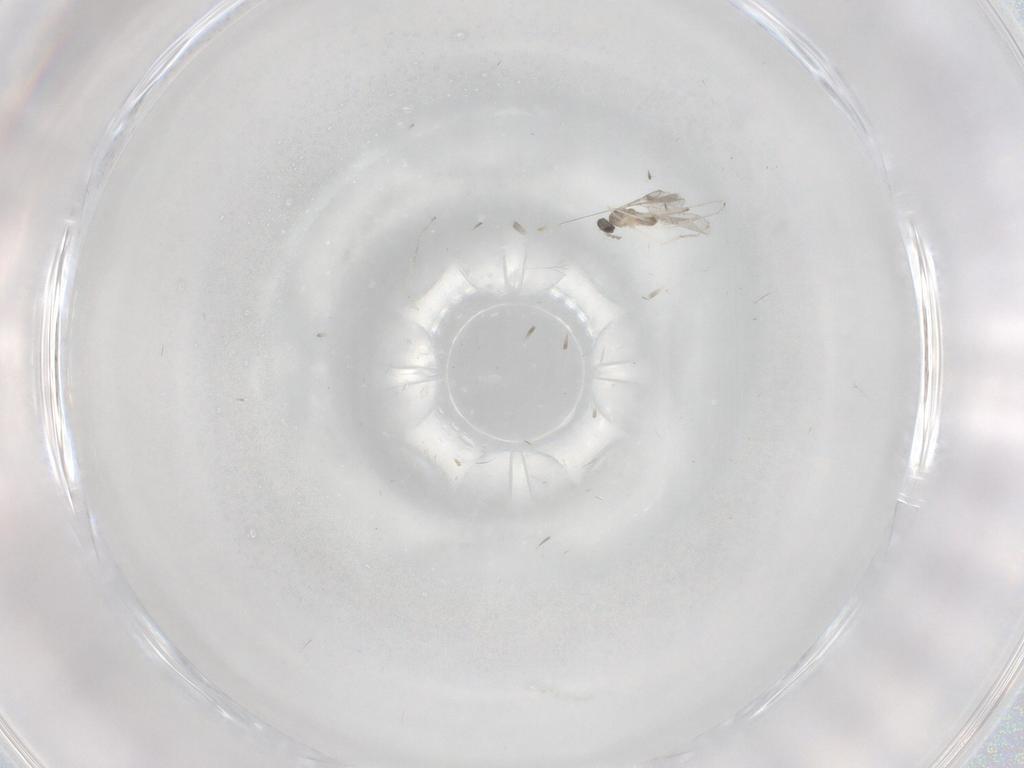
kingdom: Animalia
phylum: Arthropoda
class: Insecta
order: Diptera
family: Cecidomyiidae
